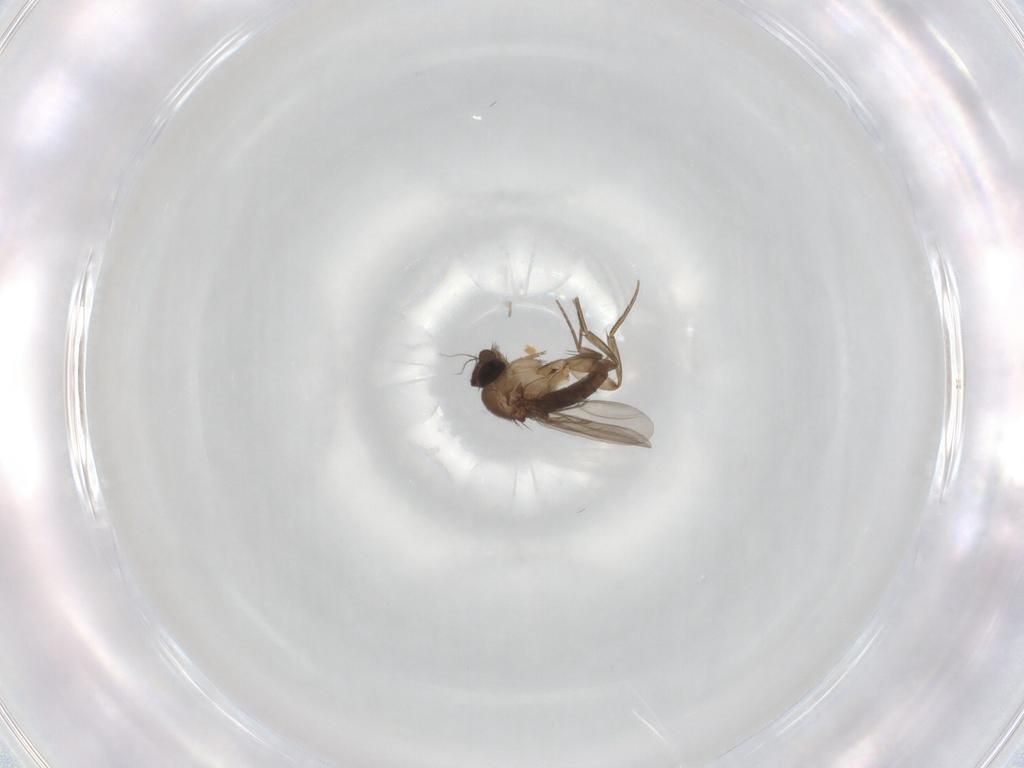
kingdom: Animalia
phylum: Arthropoda
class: Insecta
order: Diptera
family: Phoridae
